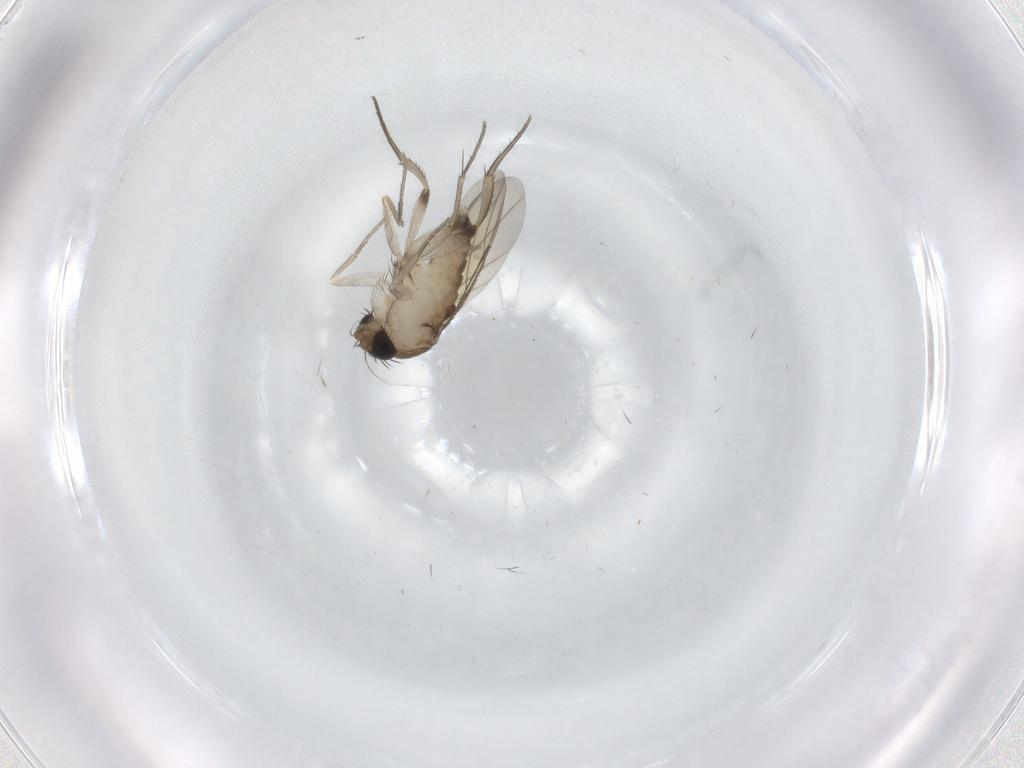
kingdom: Animalia
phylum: Arthropoda
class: Insecta
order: Diptera
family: Phoridae
